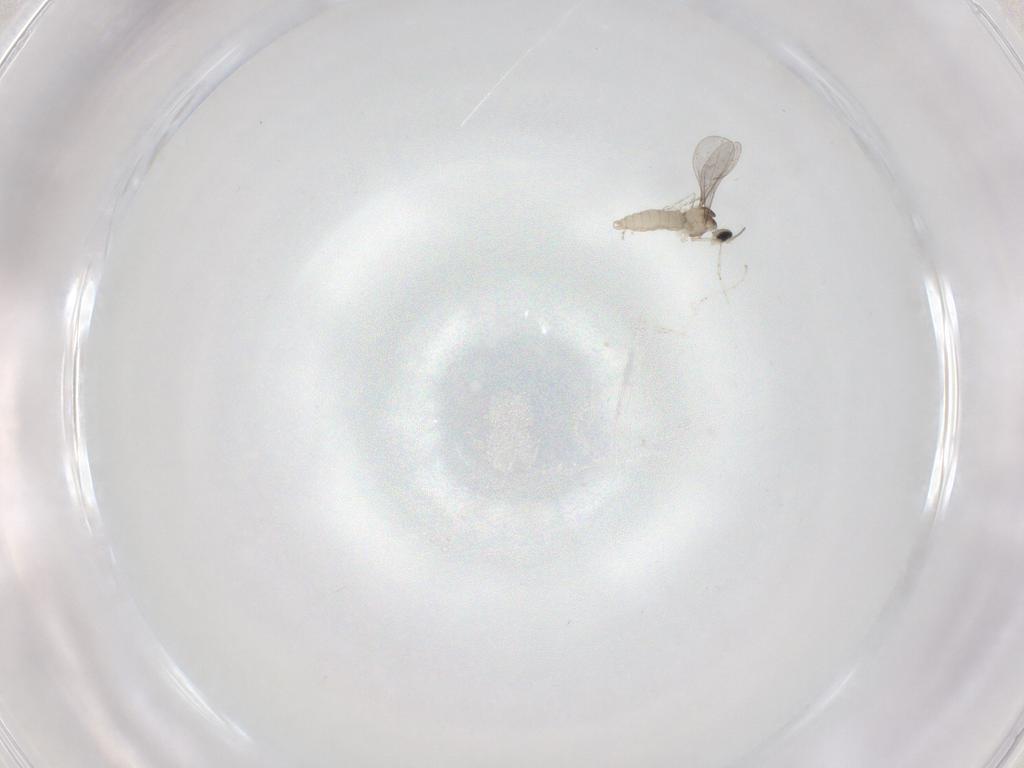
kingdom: Animalia
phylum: Arthropoda
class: Insecta
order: Diptera
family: Cecidomyiidae
